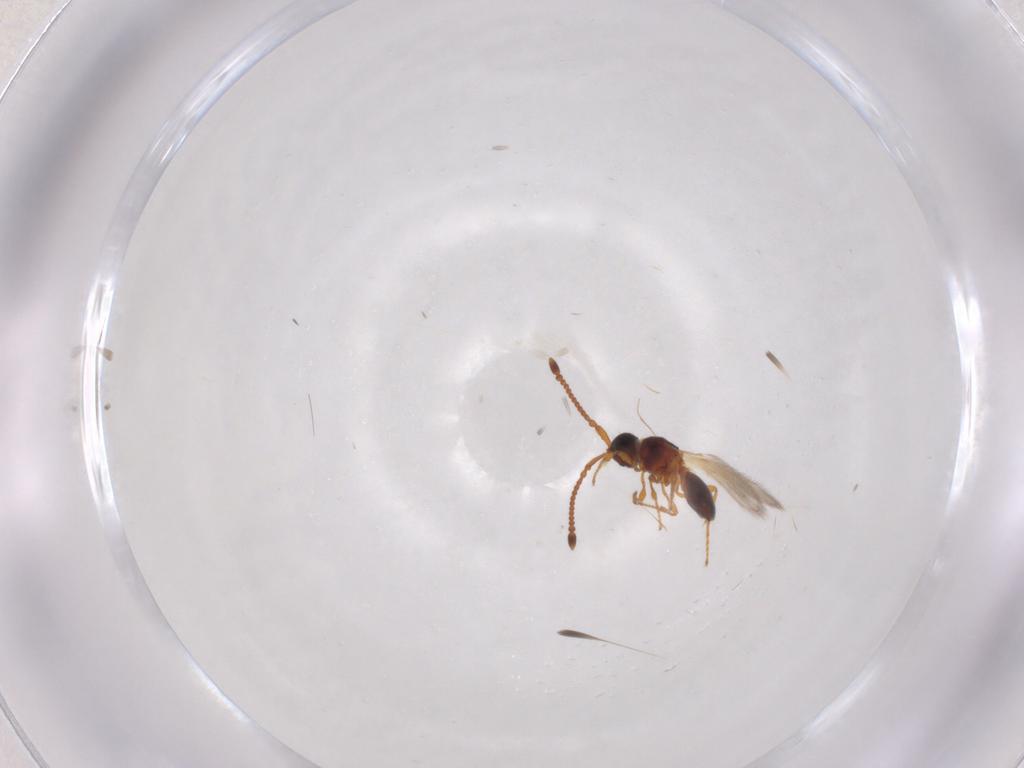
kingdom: Animalia
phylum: Arthropoda
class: Insecta
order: Hymenoptera
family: Diapriidae
